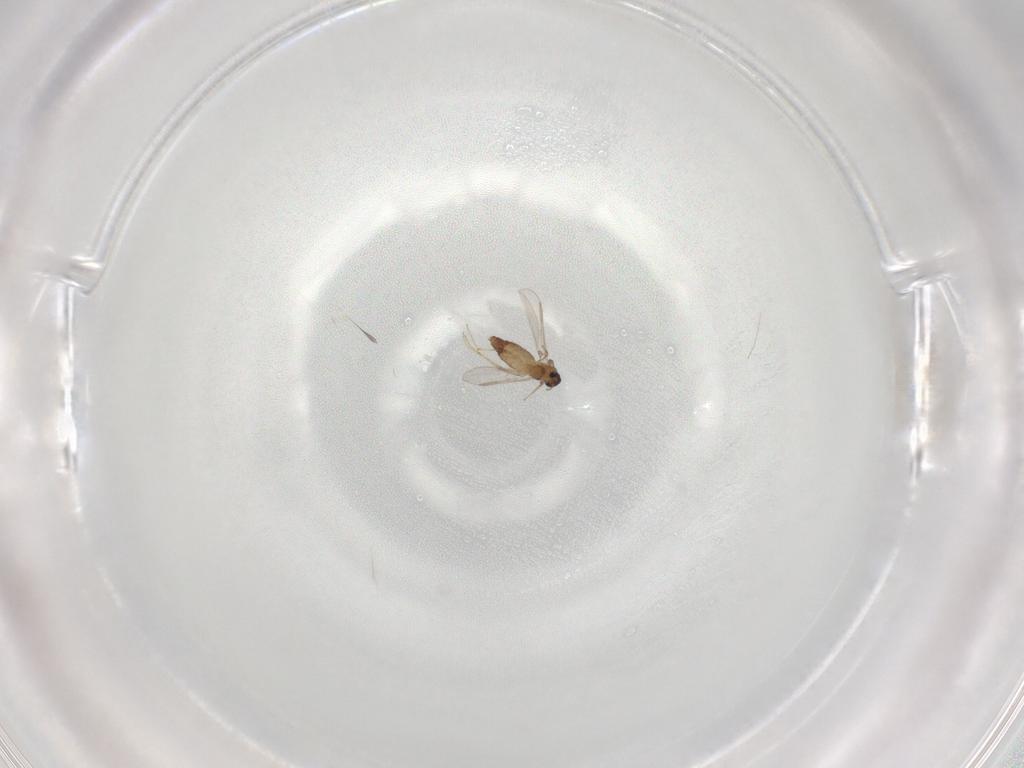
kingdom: Animalia
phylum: Arthropoda
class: Insecta
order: Diptera
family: Chironomidae
